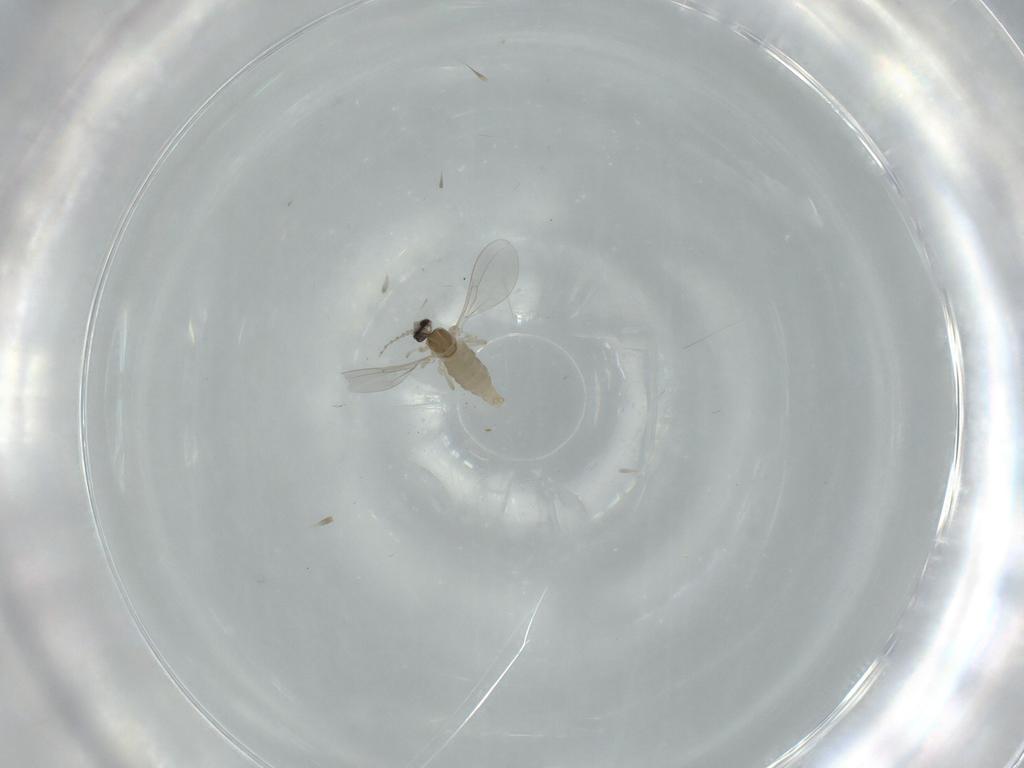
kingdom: Animalia
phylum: Arthropoda
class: Insecta
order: Diptera
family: Cecidomyiidae
